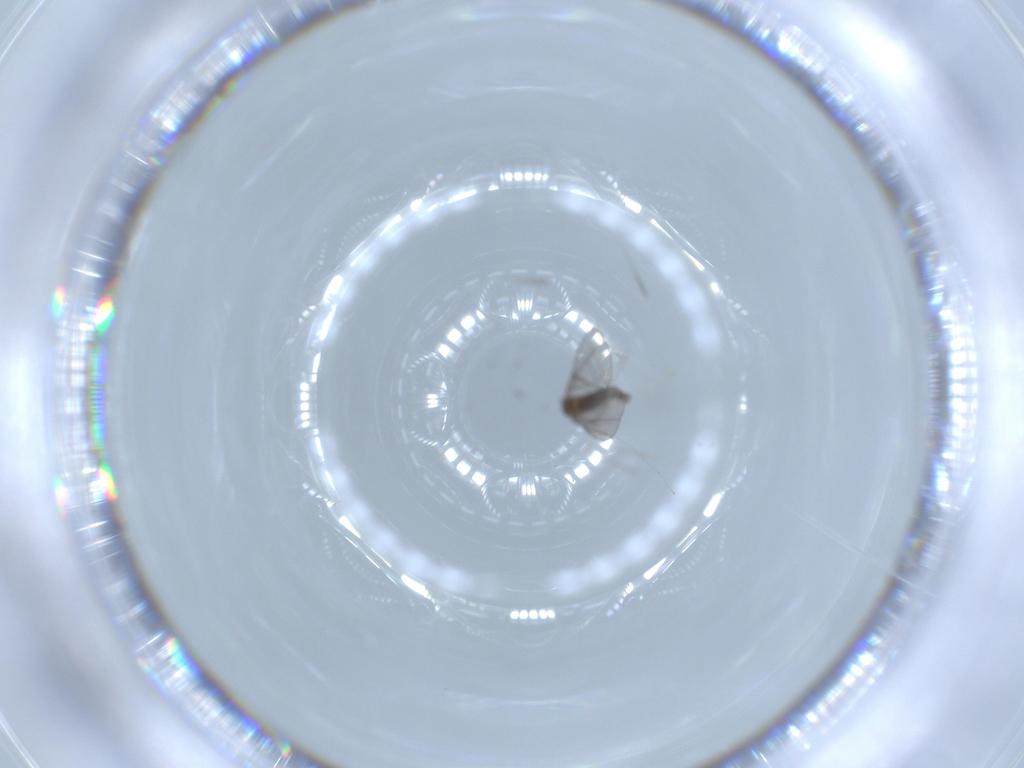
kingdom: Animalia
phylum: Arthropoda
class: Insecta
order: Diptera
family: Phoridae
